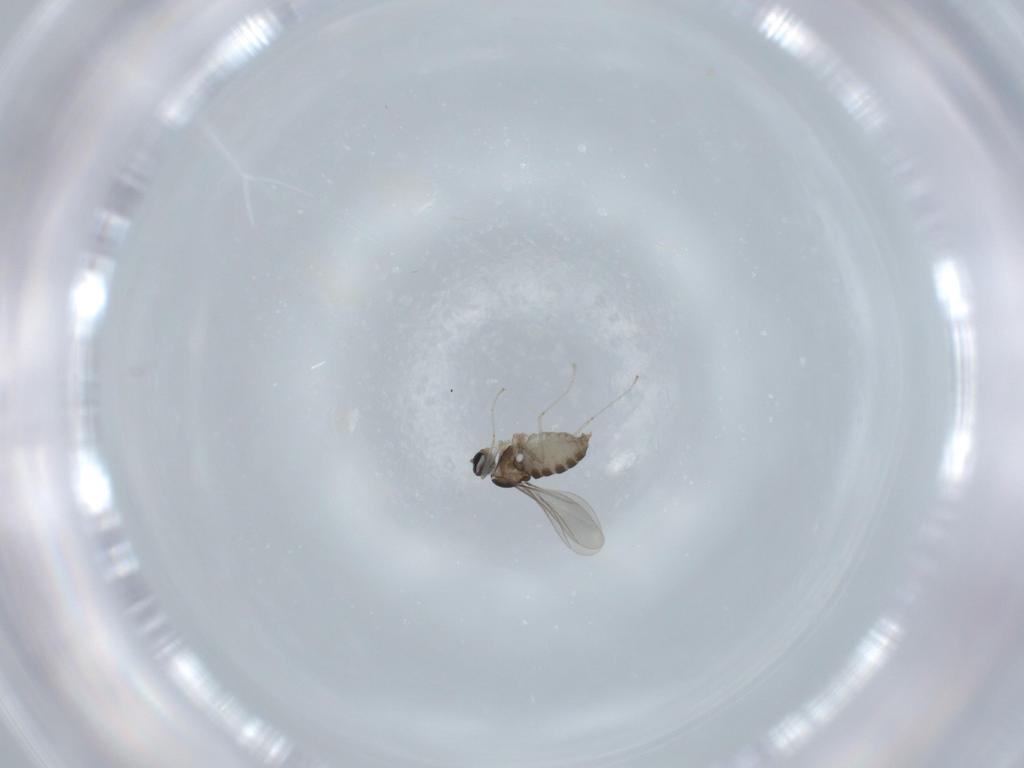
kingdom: Animalia
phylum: Arthropoda
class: Insecta
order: Diptera
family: Cecidomyiidae
